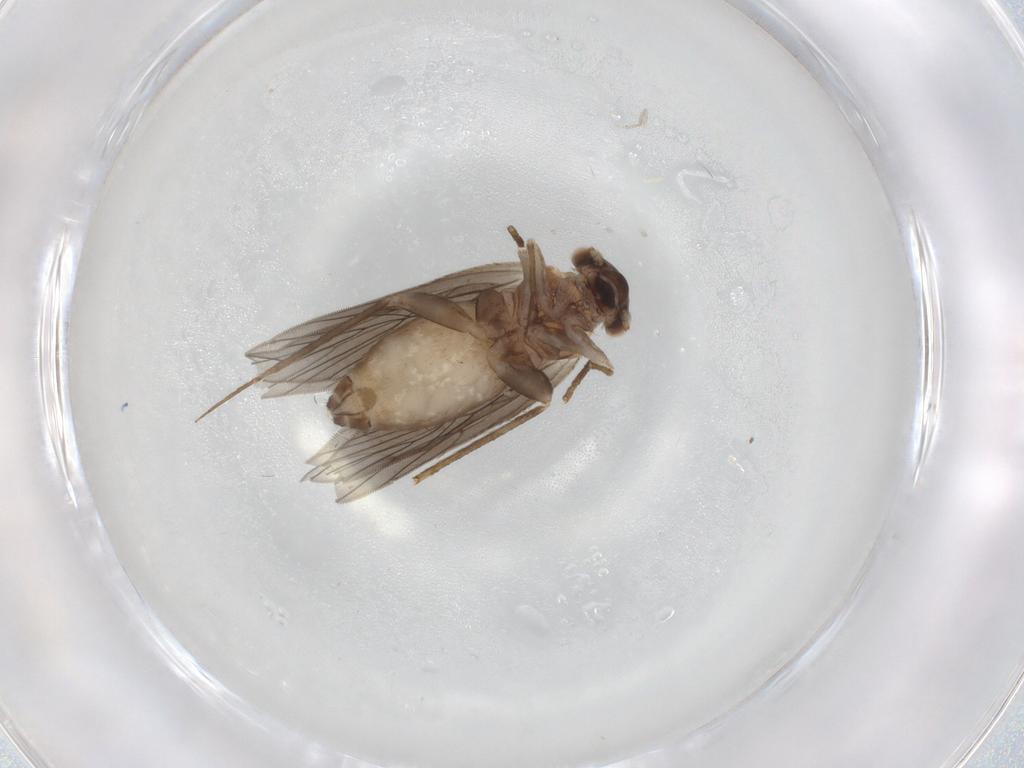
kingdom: Animalia
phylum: Arthropoda
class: Insecta
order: Psocodea
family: Lepidopsocidae
